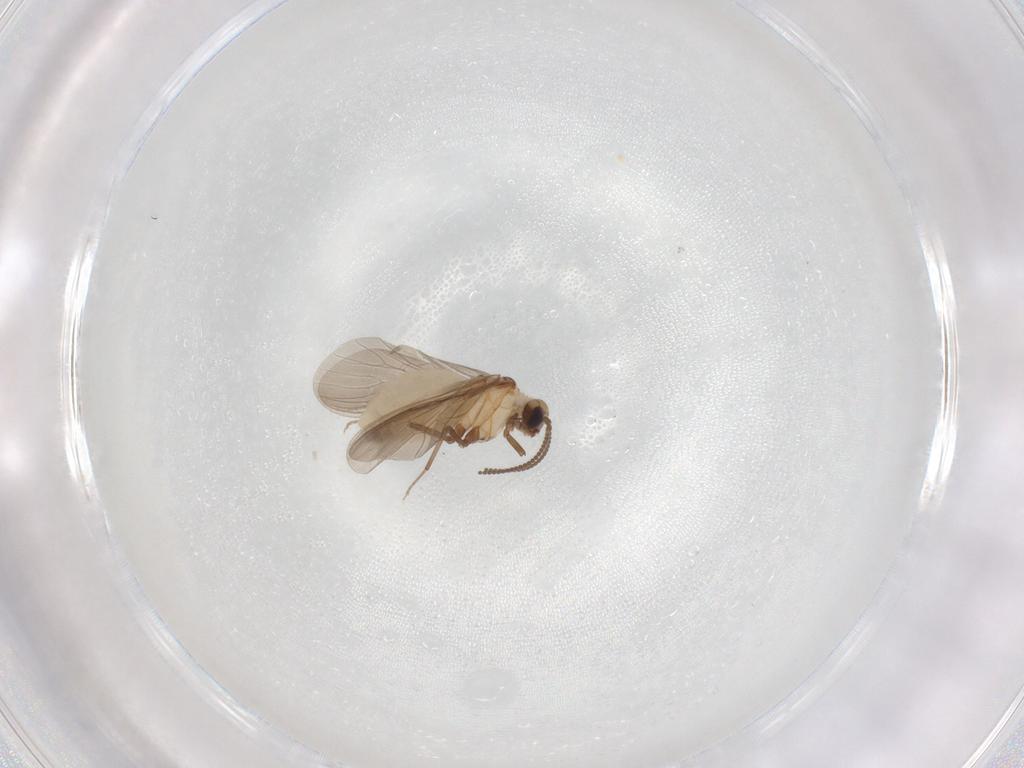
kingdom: Animalia
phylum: Arthropoda
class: Insecta
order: Neuroptera
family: Coniopterygidae
